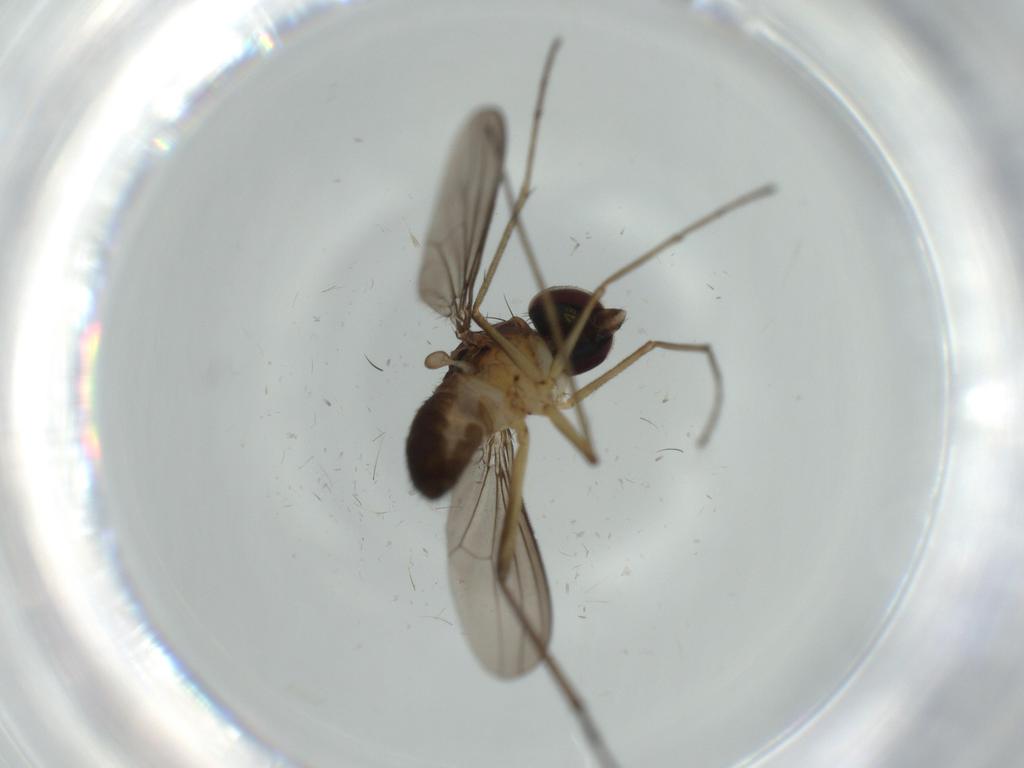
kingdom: Animalia
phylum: Arthropoda
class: Insecta
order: Diptera
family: Dolichopodidae
